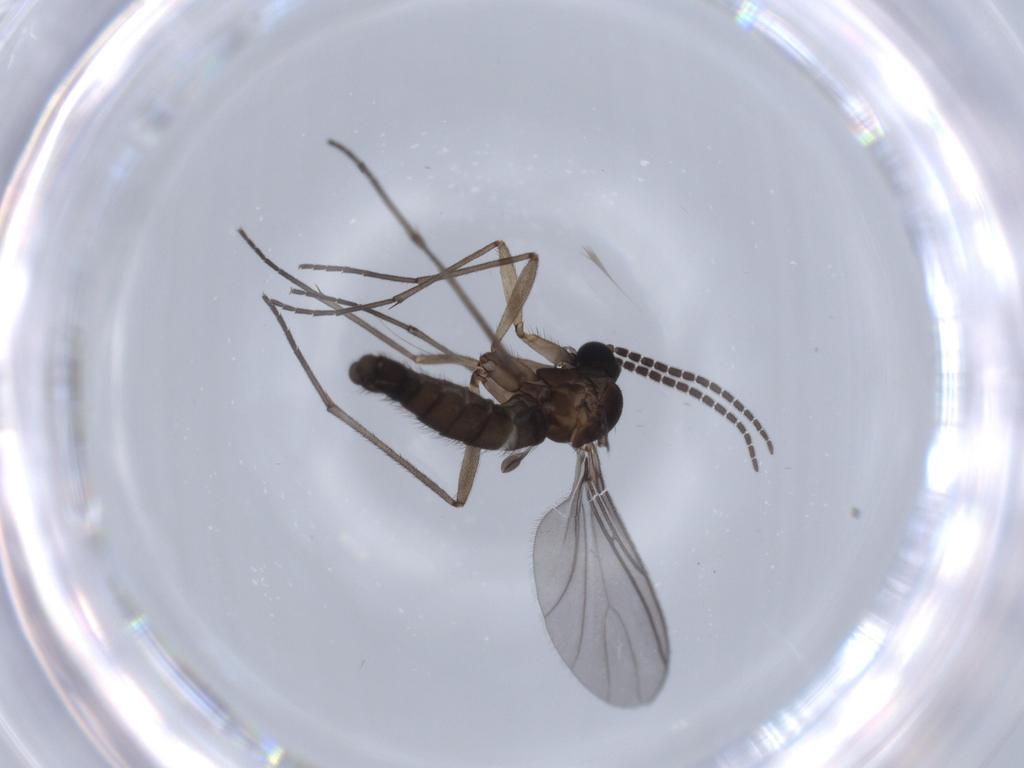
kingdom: Animalia
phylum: Arthropoda
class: Insecta
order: Diptera
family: Sciaridae
